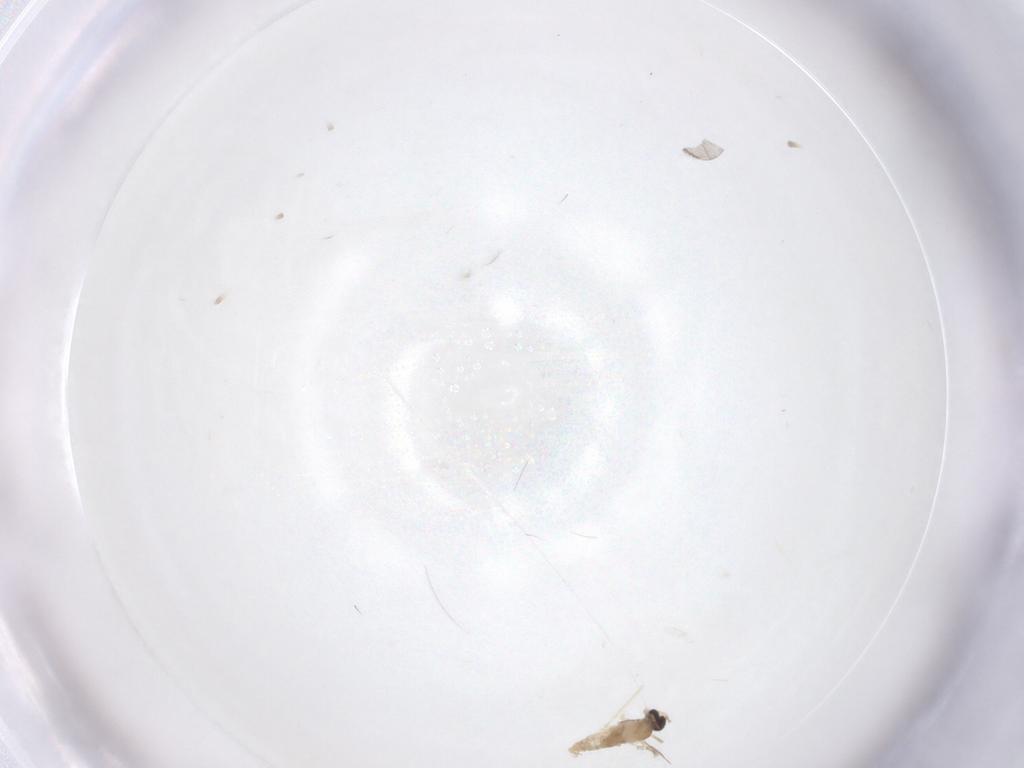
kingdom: Animalia
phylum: Arthropoda
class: Insecta
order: Diptera
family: Cecidomyiidae
